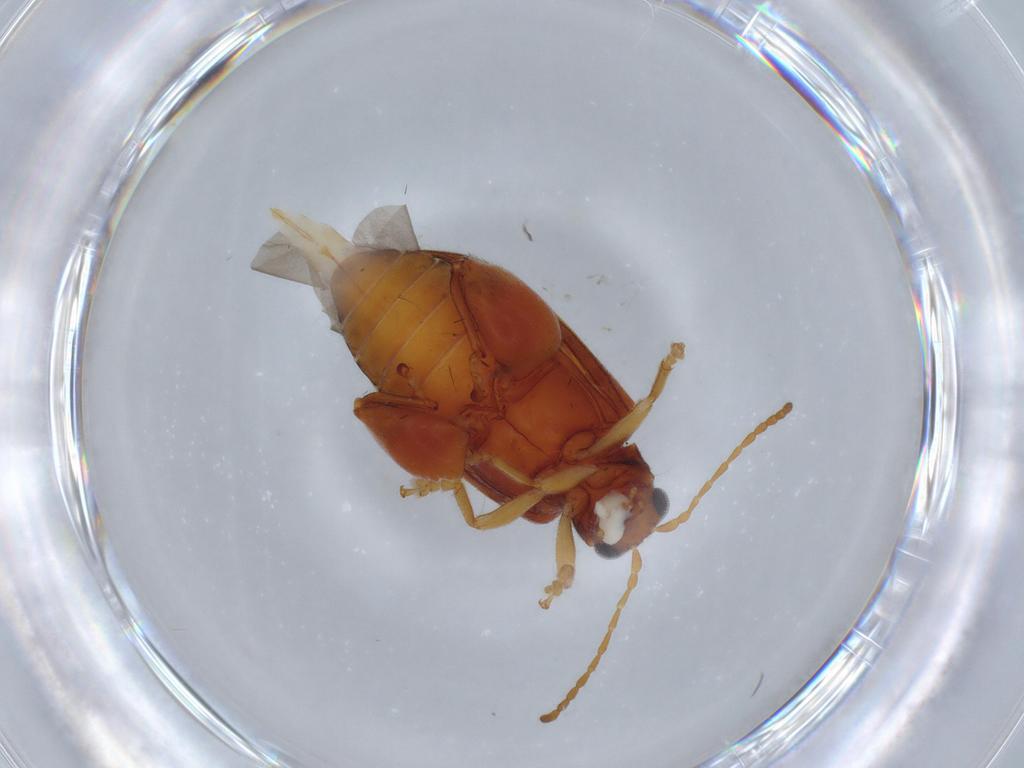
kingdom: Animalia
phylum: Arthropoda
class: Insecta
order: Coleoptera
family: Chrysomelidae
